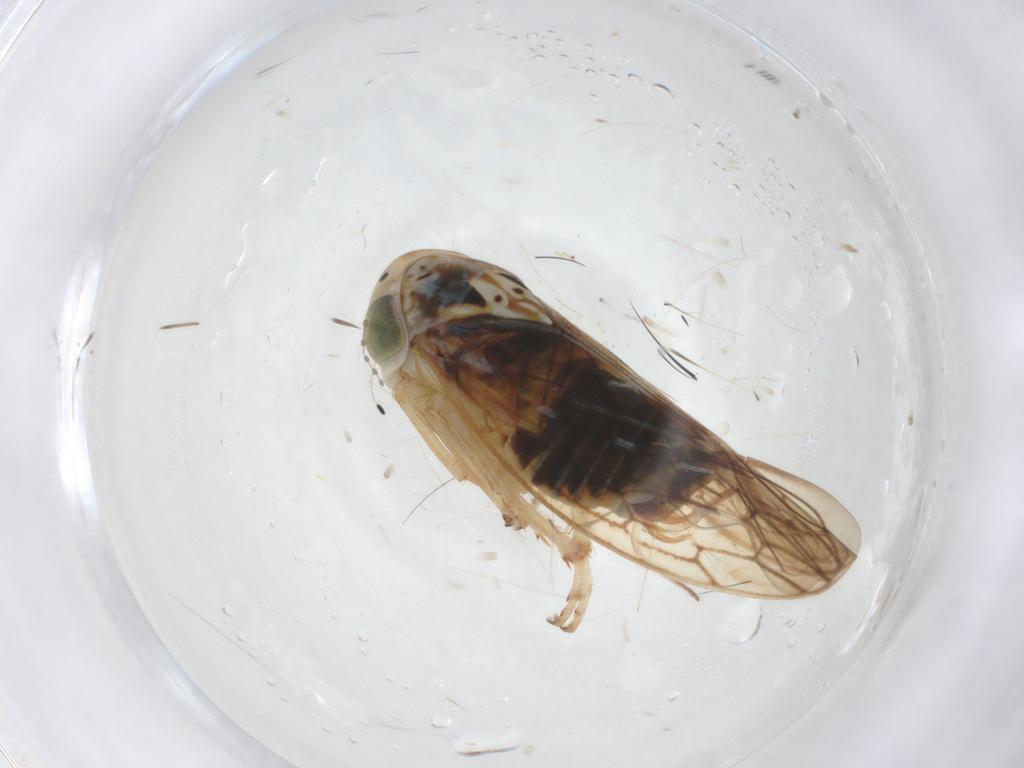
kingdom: Animalia
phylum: Arthropoda
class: Insecta
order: Hemiptera
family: Cicadellidae
